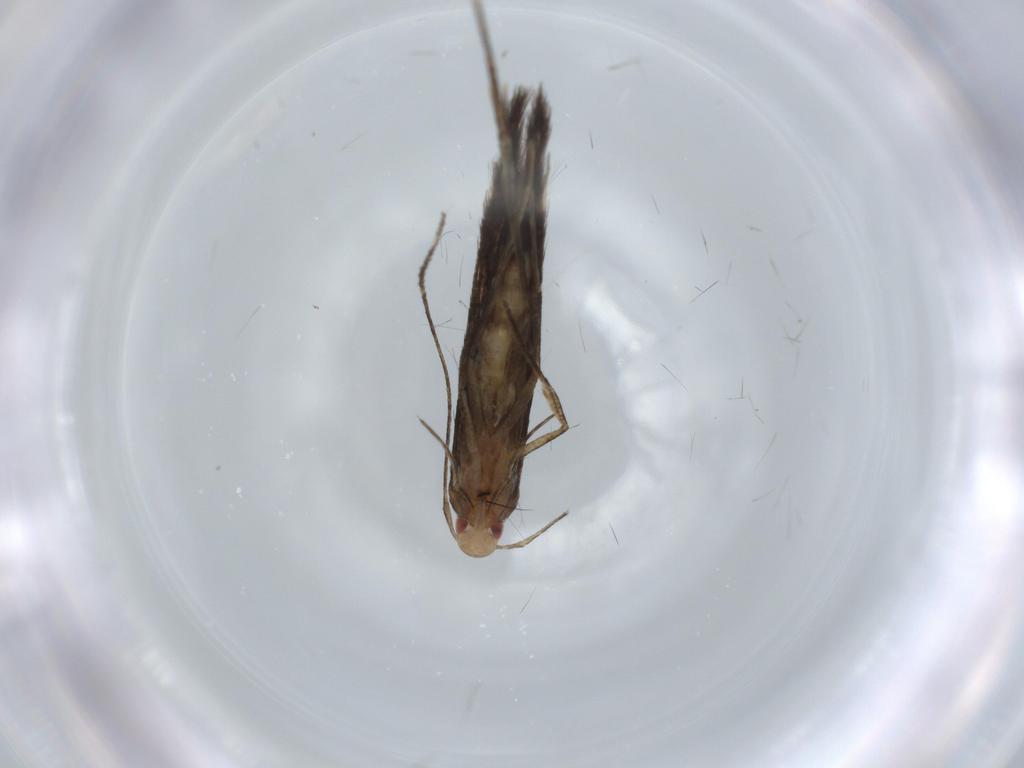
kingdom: Animalia
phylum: Arthropoda
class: Insecta
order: Lepidoptera
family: Cosmopterigidae
